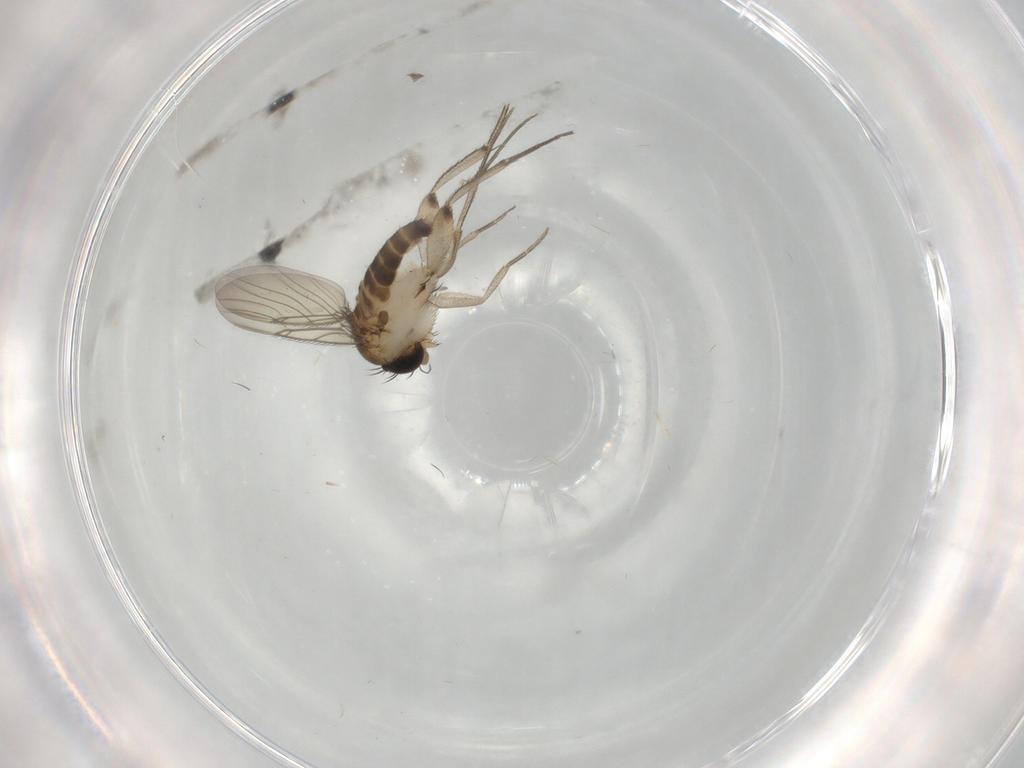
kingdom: Animalia
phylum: Arthropoda
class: Insecta
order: Diptera
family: Phoridae
